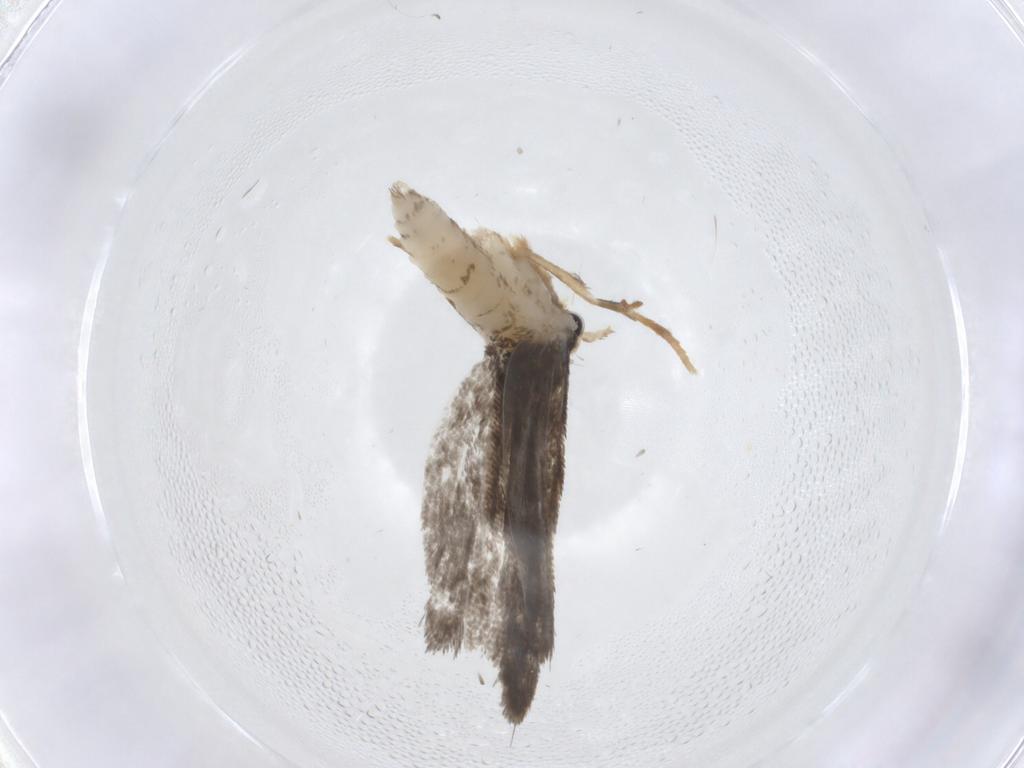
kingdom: Animalia
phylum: Arthropoda
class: Insecta
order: Lepidoptera
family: Psychidae
